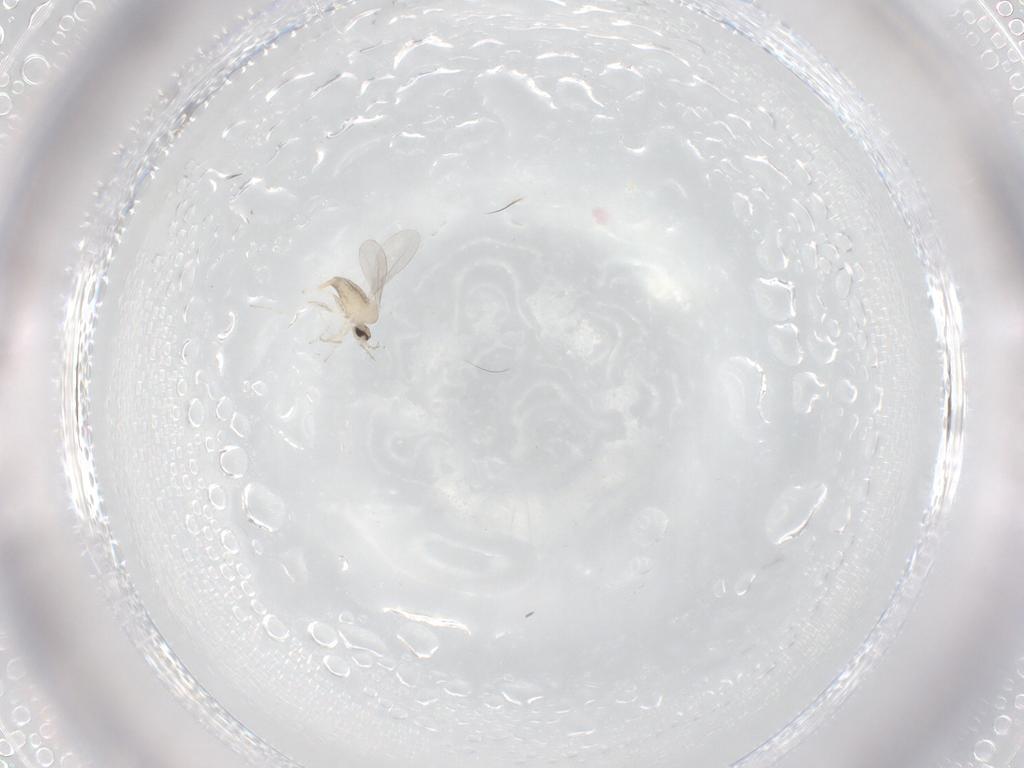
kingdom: Animalia
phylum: Arthropoda
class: Insecta
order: Diptera
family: Cecidomyiidae
